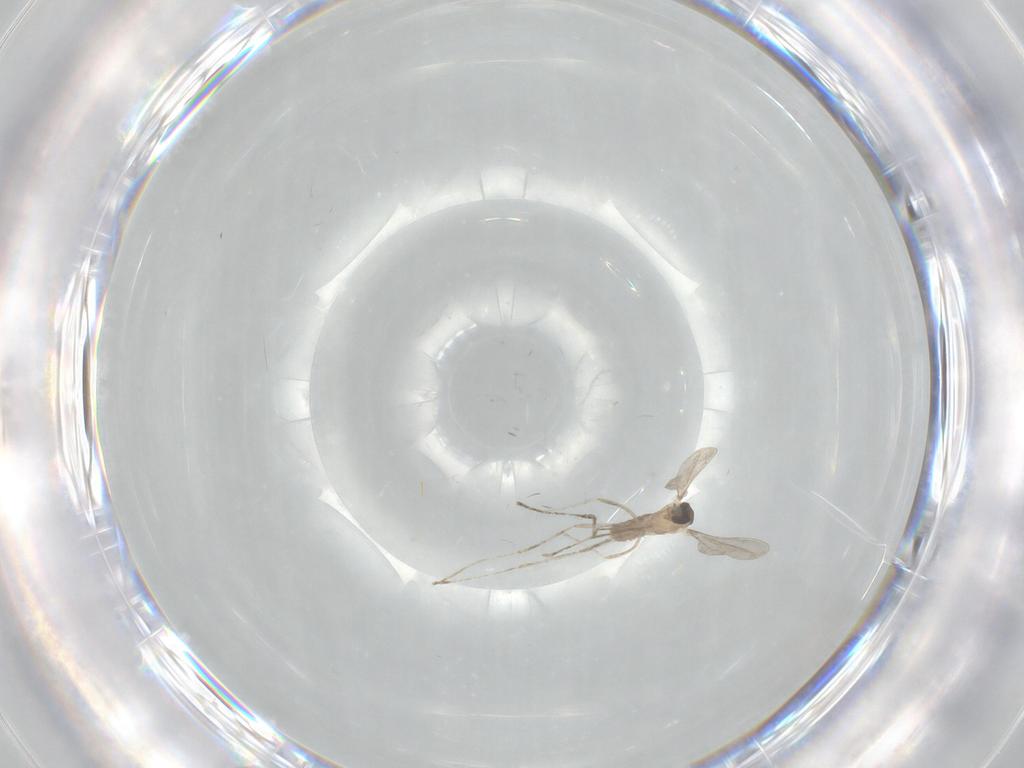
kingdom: Animalia
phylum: Arthropoda
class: Insecta
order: Diptera
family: Cecidomyiidae
